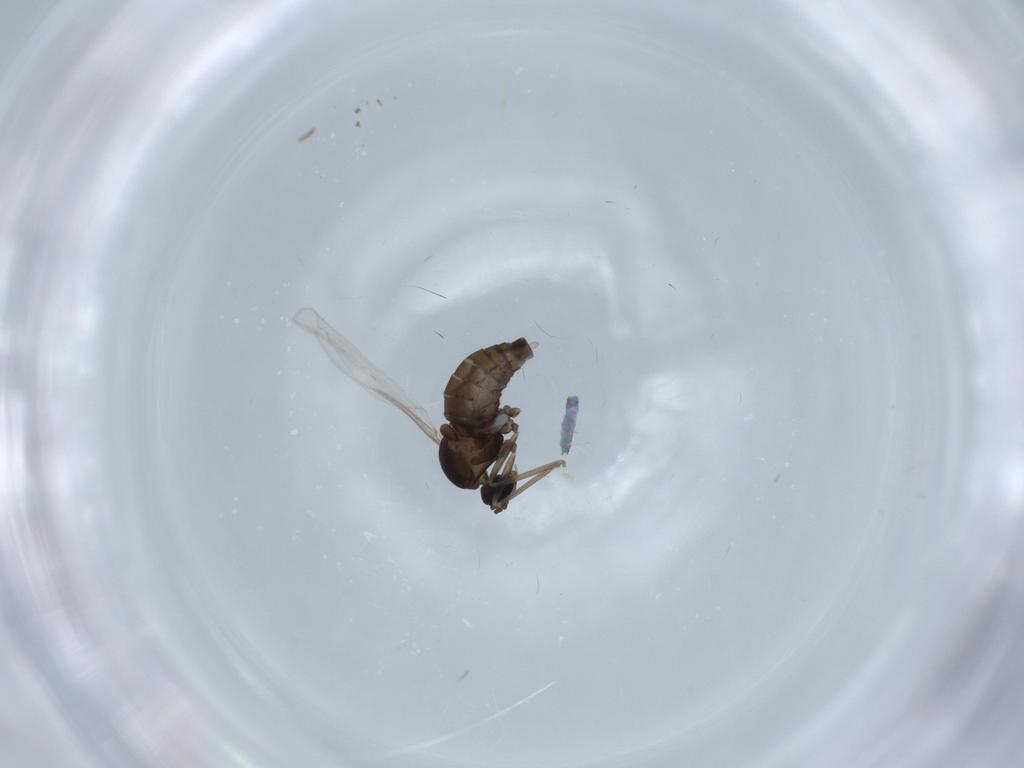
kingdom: Animalia
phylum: Arthropoda
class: Insecta
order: Diptera
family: Cecidomyiidae
